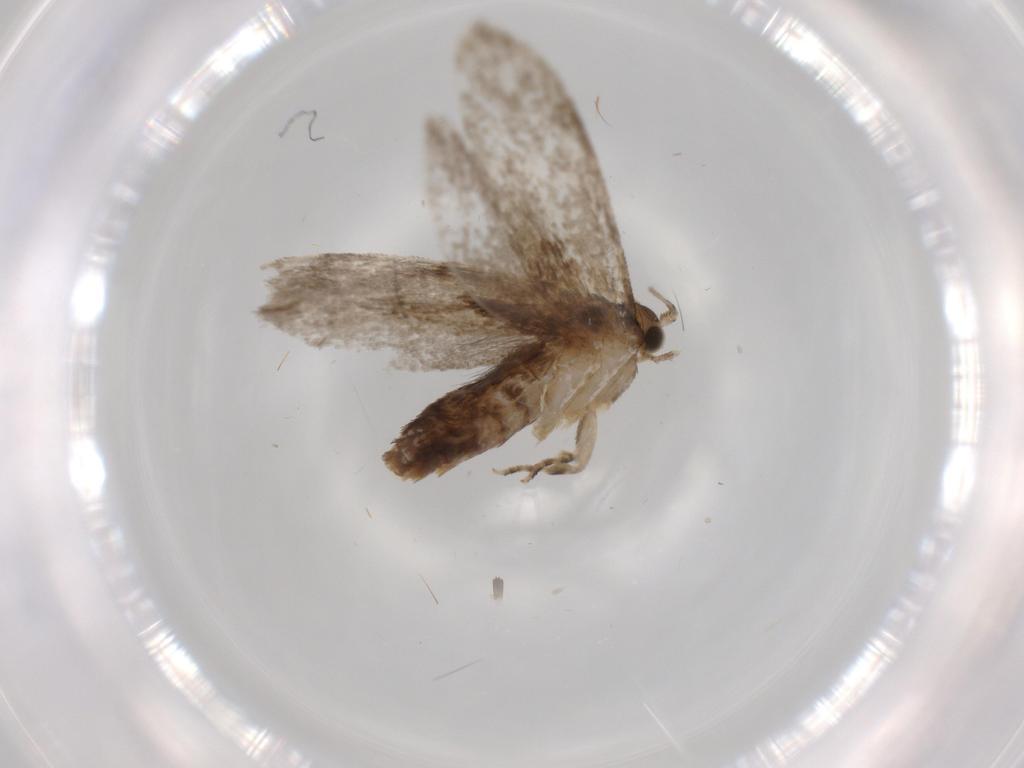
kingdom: Animalia
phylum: Arthropoda
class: Insecta
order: Lepidoptera
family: Tineidae
